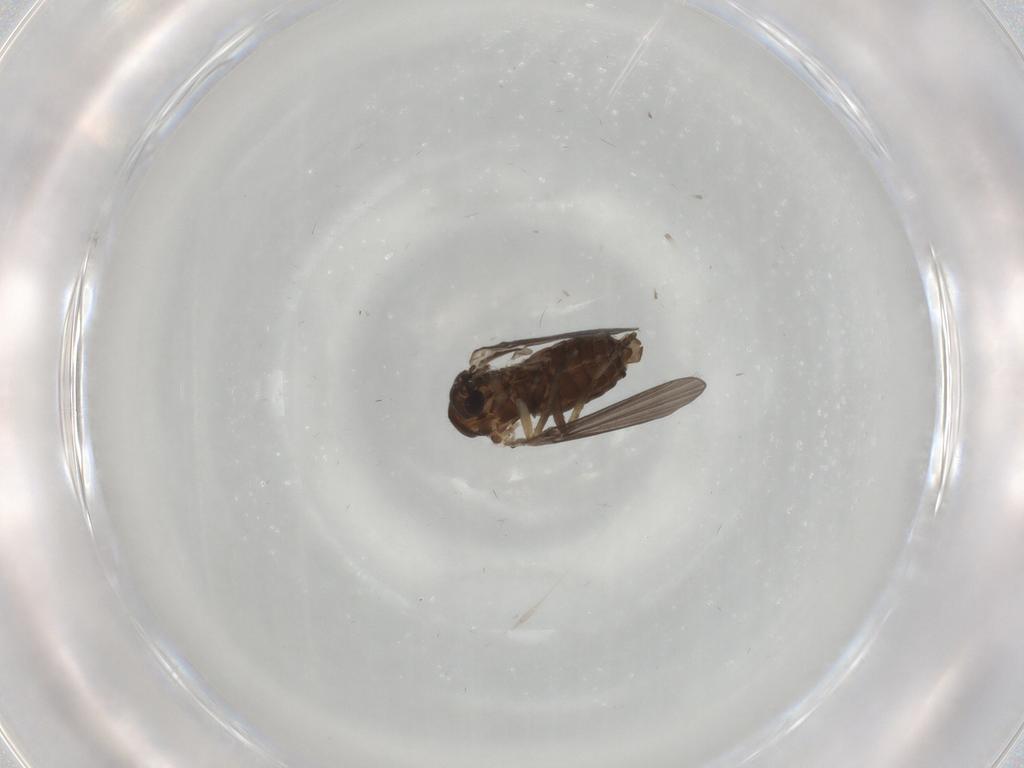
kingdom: Animalia
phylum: Arthropoda
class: Insecta
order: Diptera
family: Psychodidae
